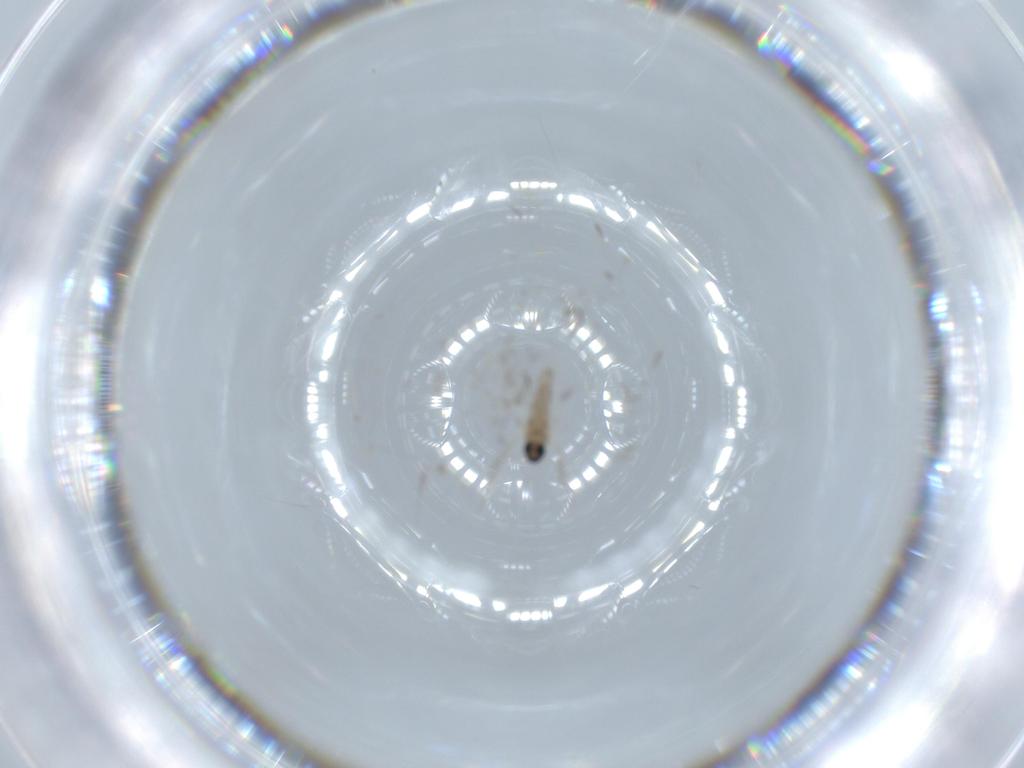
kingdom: Animalia
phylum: Arthropoda
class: Insecta
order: Diptera
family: Cecidomyiidae
